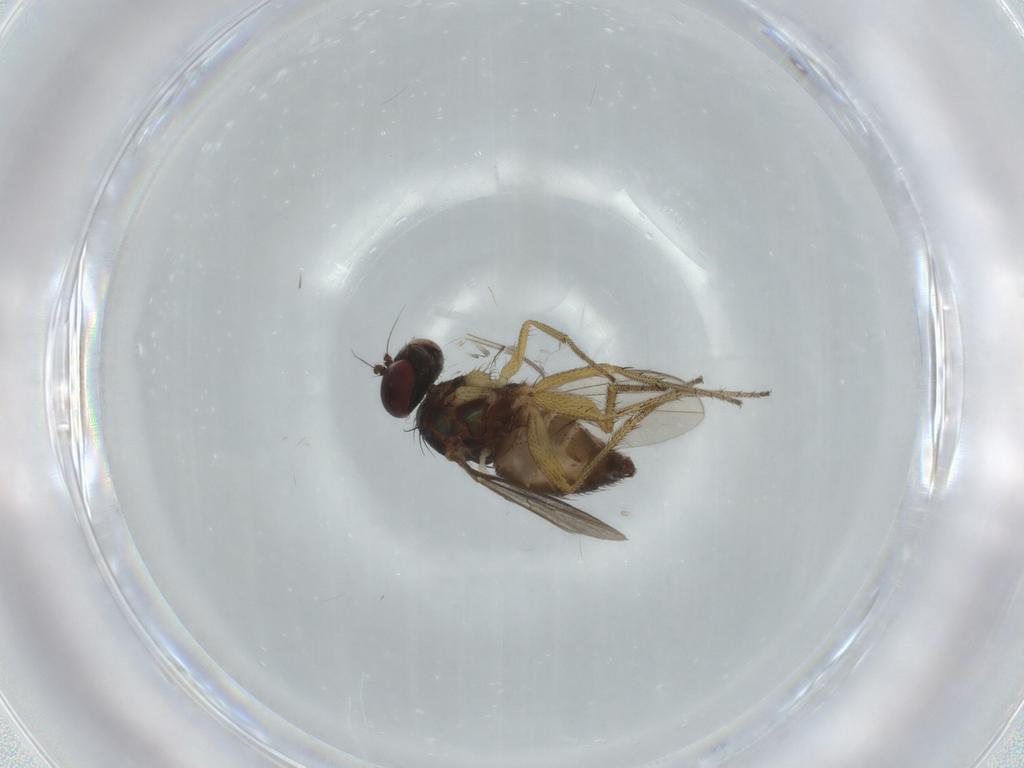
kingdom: Animalia
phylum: Arthropoda
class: Insecta
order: Diptera
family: Dolichopodidae
